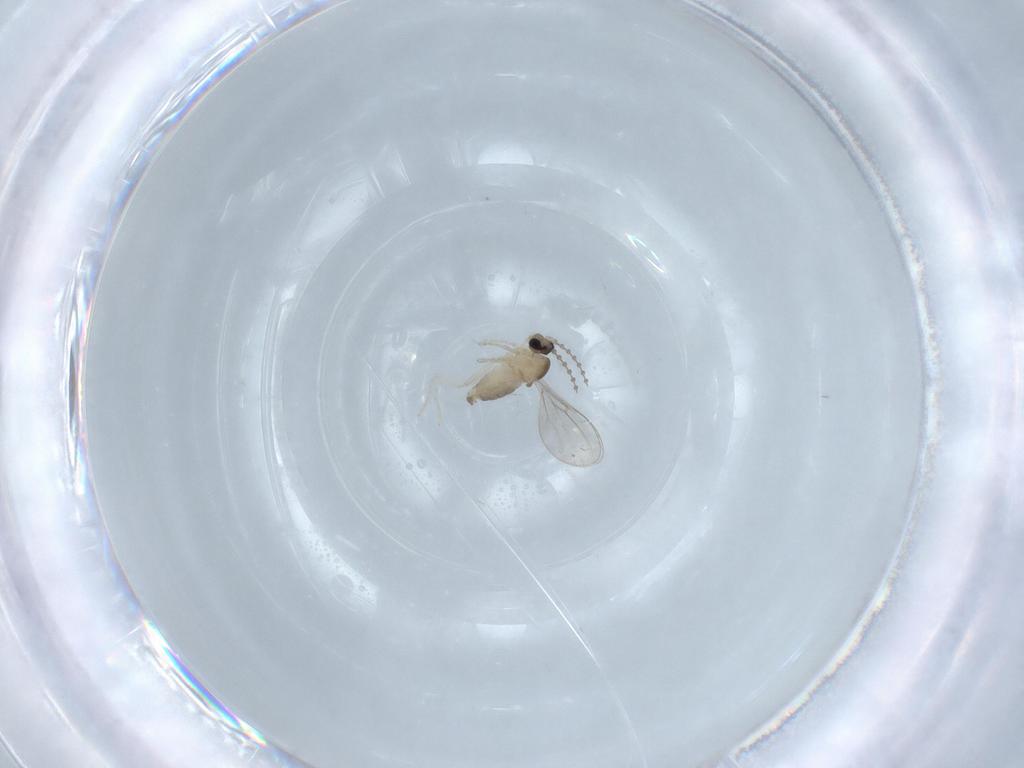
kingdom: Animalia
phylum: Arthropoda
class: Insecta
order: Diptera
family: Cecidomyiidae
